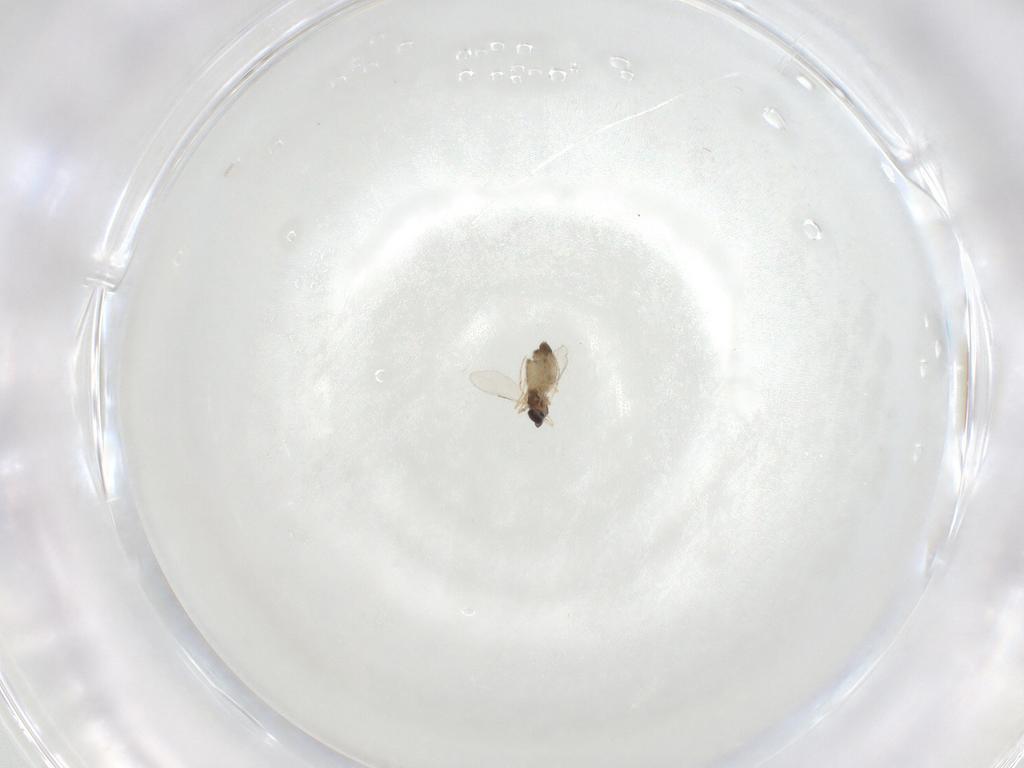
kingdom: Animalia
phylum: Arthropoda
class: Insecta
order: Diptera
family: Chironomidae
